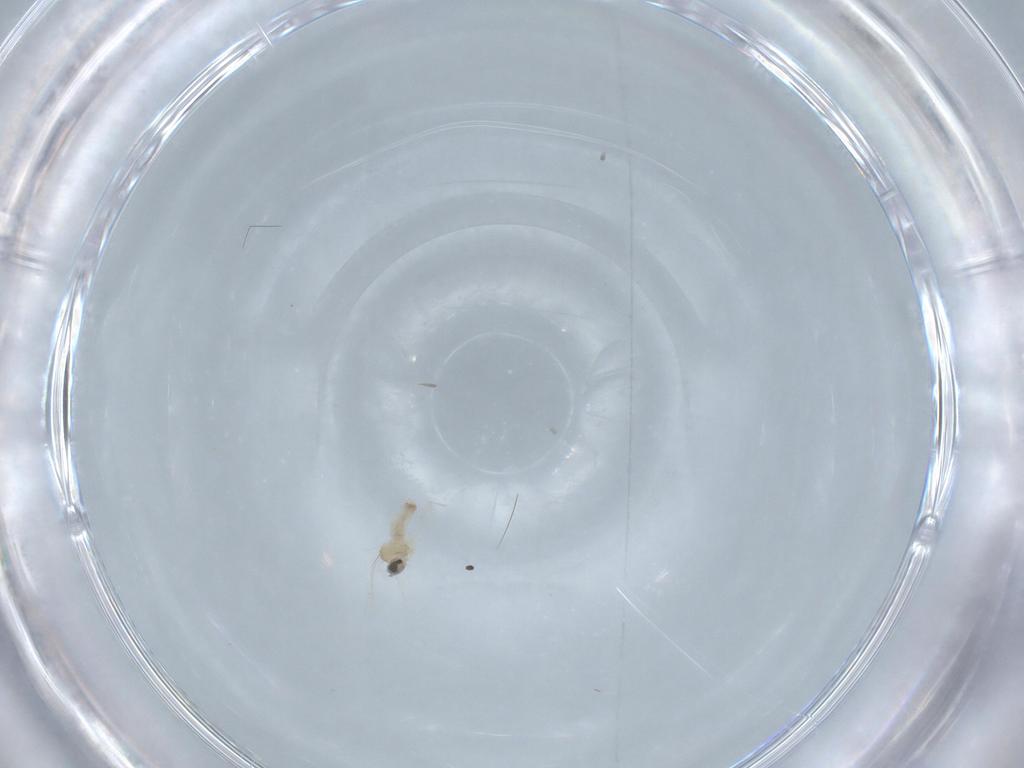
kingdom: Animalia
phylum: Arthropoda
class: Insecta
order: Diptera
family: Cecidomyiidae
